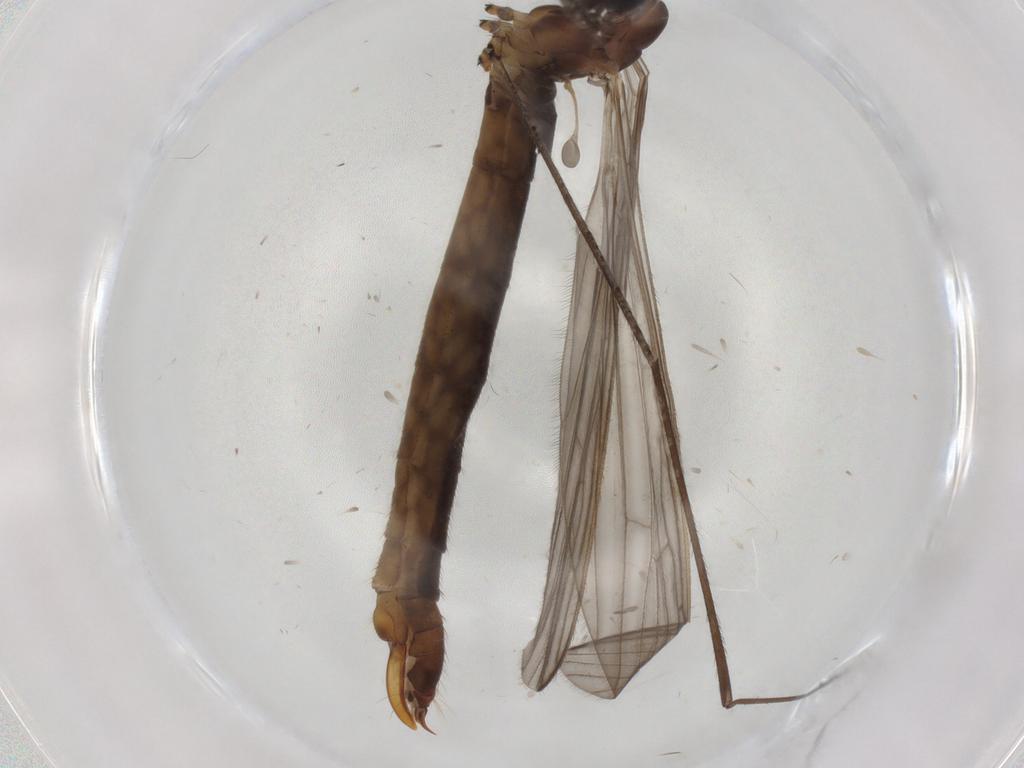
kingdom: Animalia
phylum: Arthropoda
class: Insecta
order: Diptera
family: Limoniidae
